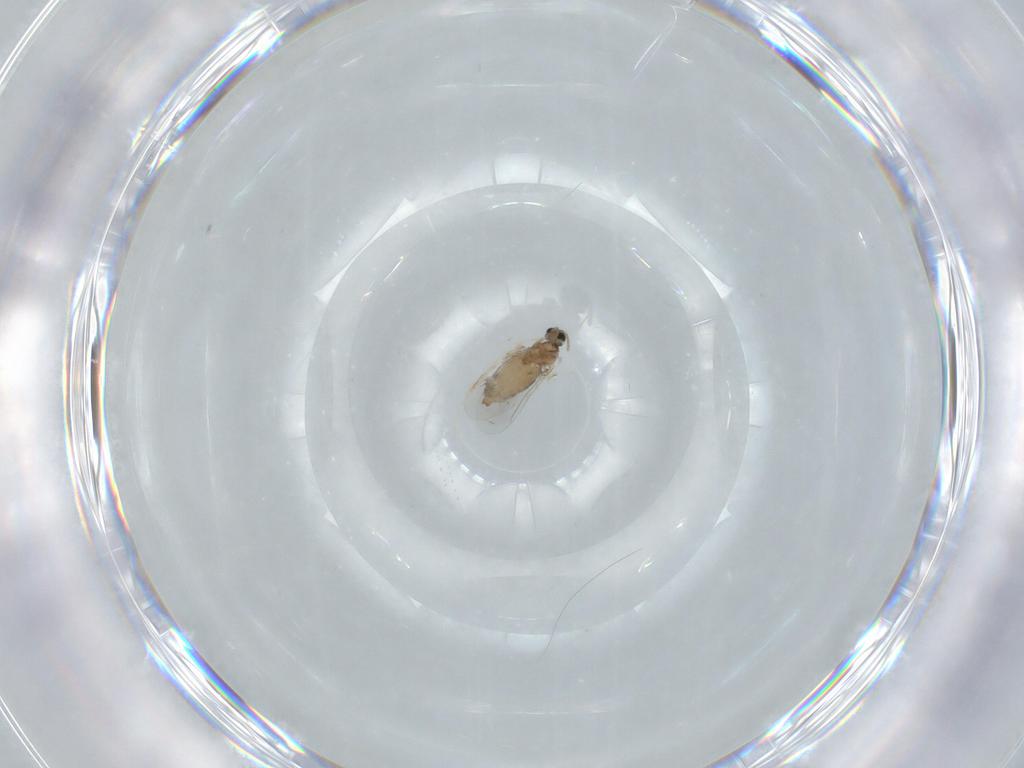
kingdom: Animalia
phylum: Arthropoda
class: Insecta
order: Diptera
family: Cecidomyiidae
